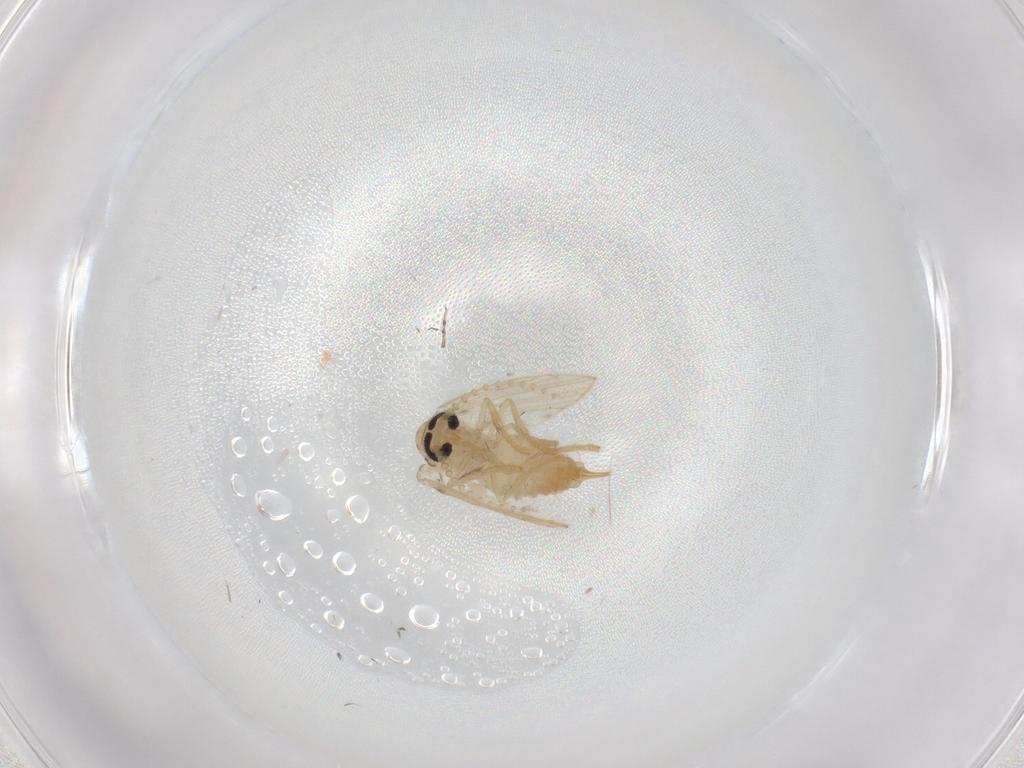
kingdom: Animalia
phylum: Arthropoda
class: Insecta
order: Diptera
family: Psychodidae
